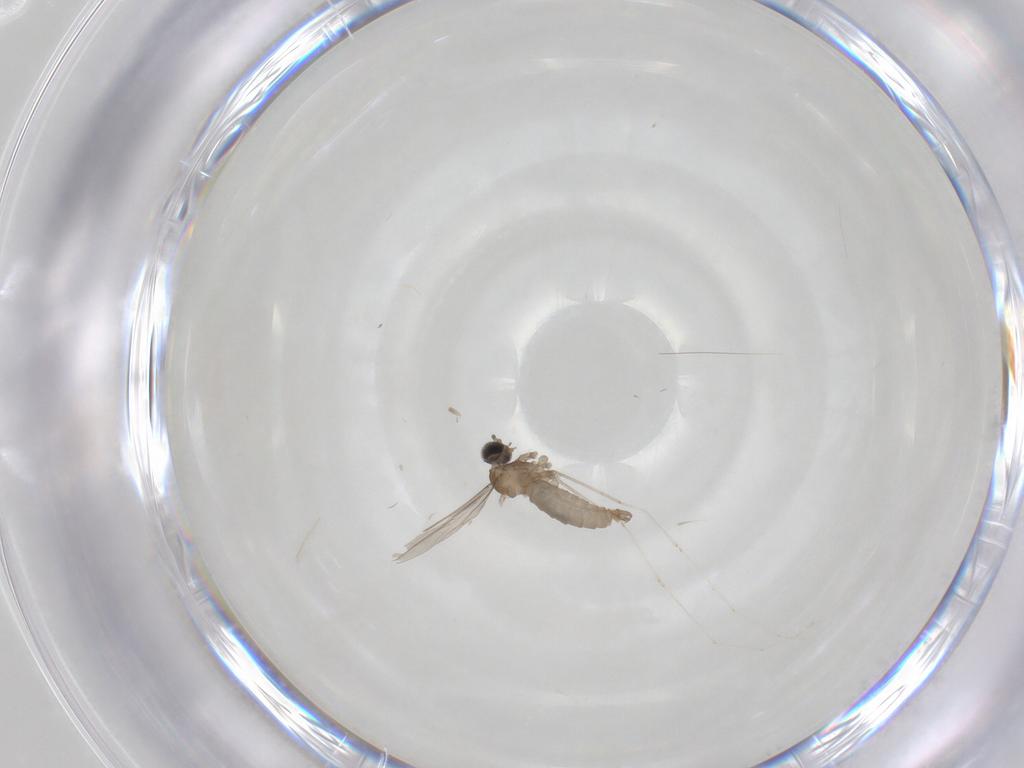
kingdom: Animalia
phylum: Arthropoda
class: Insecta
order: Diptera
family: Cecidomyiidae
